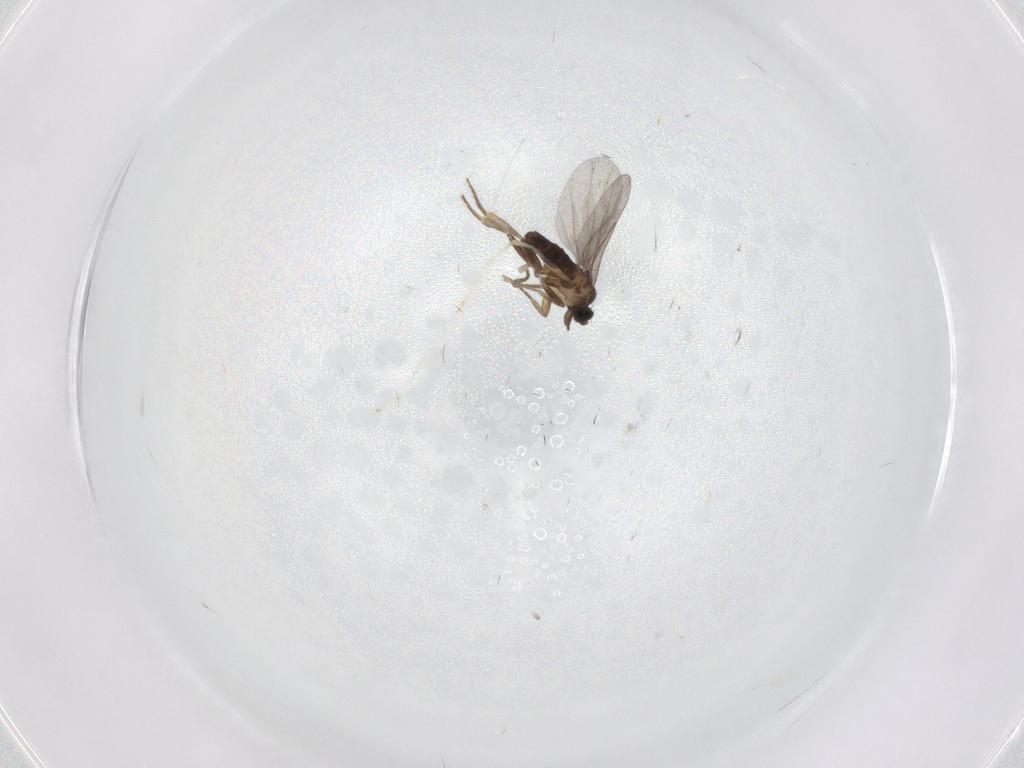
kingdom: Animalia
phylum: Arthropoda
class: Insecta
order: Diptera
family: Cecidomyiidae
